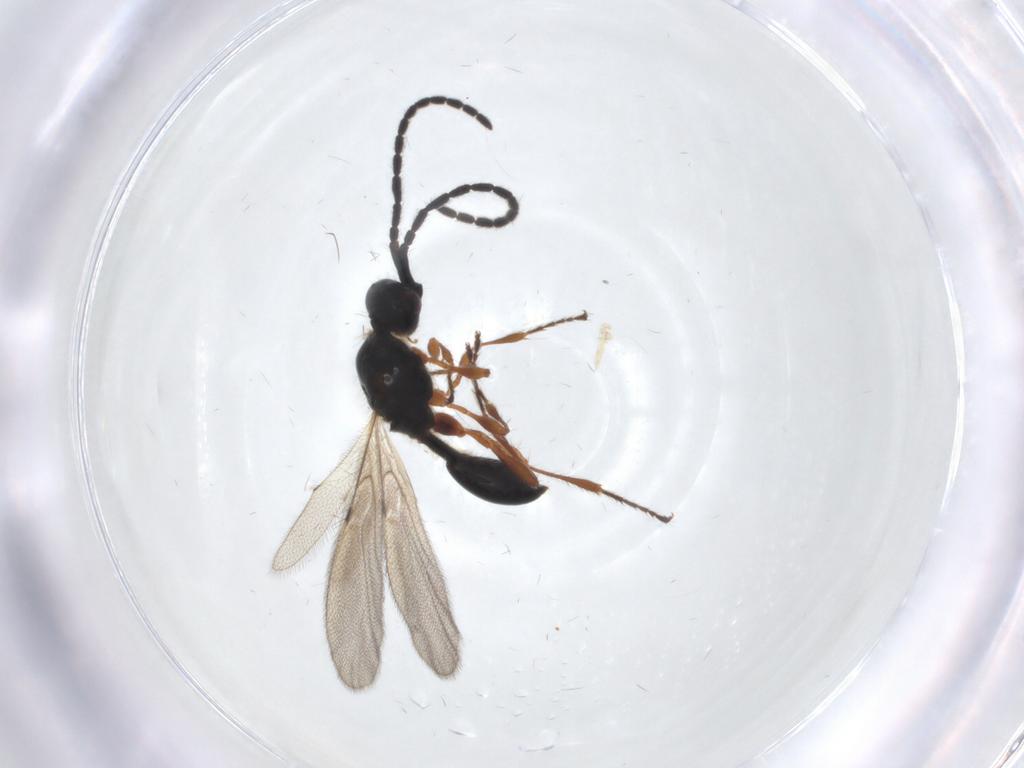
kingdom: Animalia
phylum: Arthropoda
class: Insecta
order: Hymenoptera
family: Diapriidae
